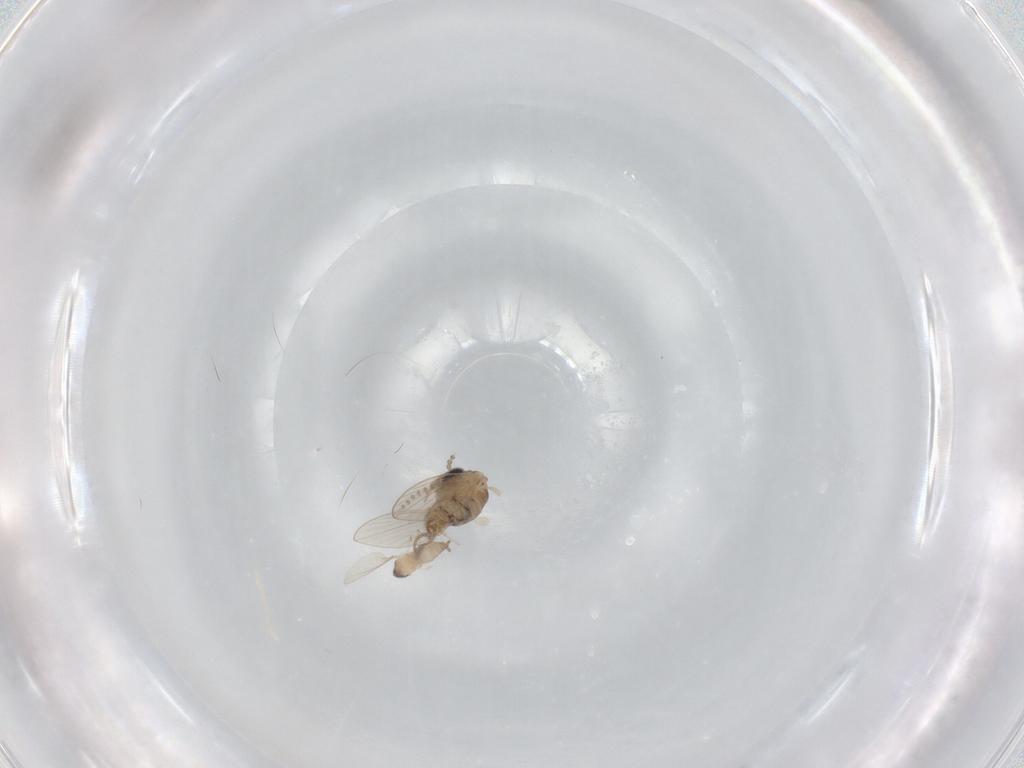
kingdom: Animalia
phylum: Arthropoda
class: Insecta
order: Diptera
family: Cecidomyiidae
